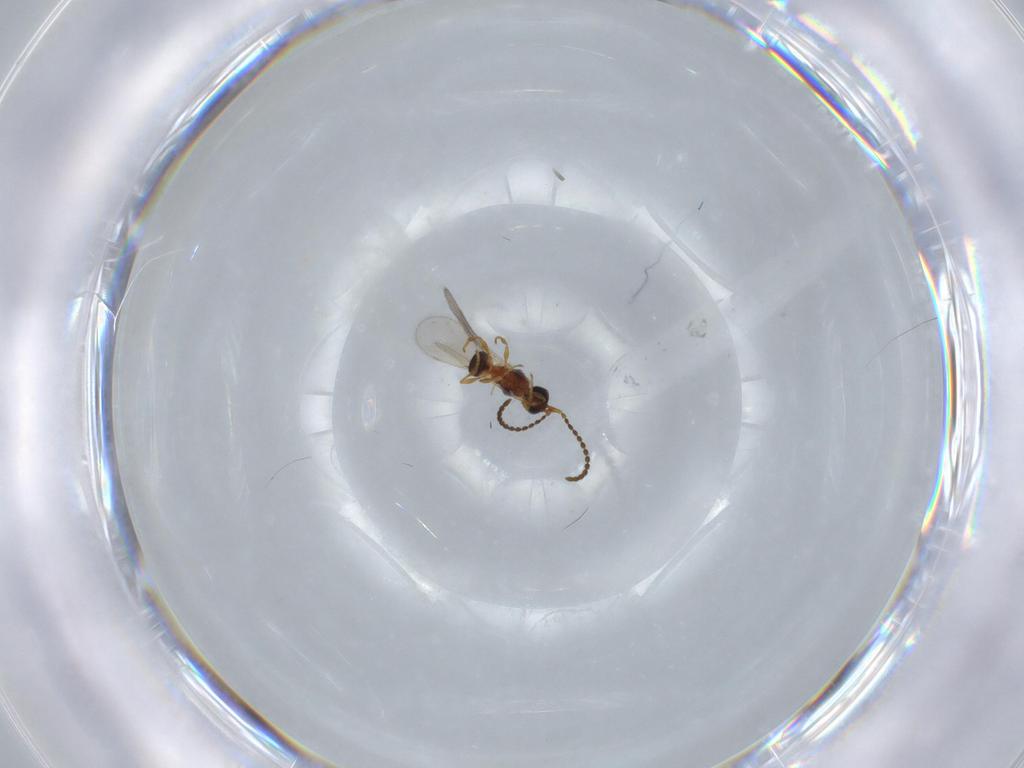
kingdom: Animalia
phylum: Arthropoda
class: Insecta
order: Hymenoptera
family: Diapriidae
